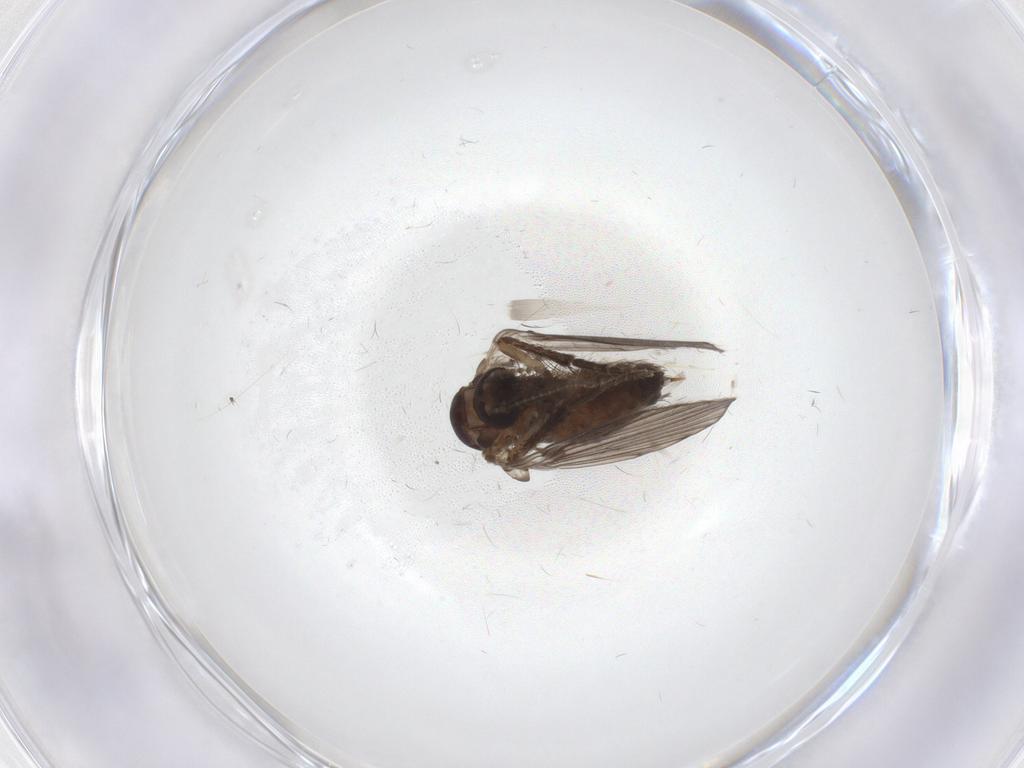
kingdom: Animalia
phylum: Arthropoda
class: Insecta
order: Diptera
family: Psychodidae
